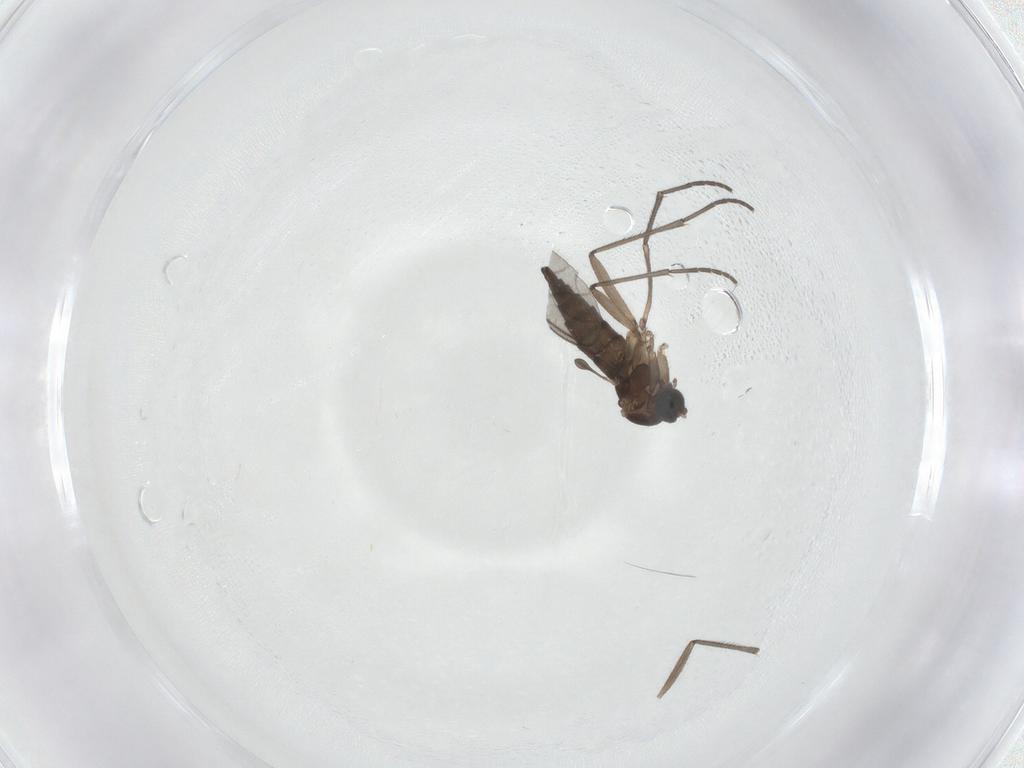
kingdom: Animalia
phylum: Arthropoda
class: Insecta
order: Diptera
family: Sciaridae
